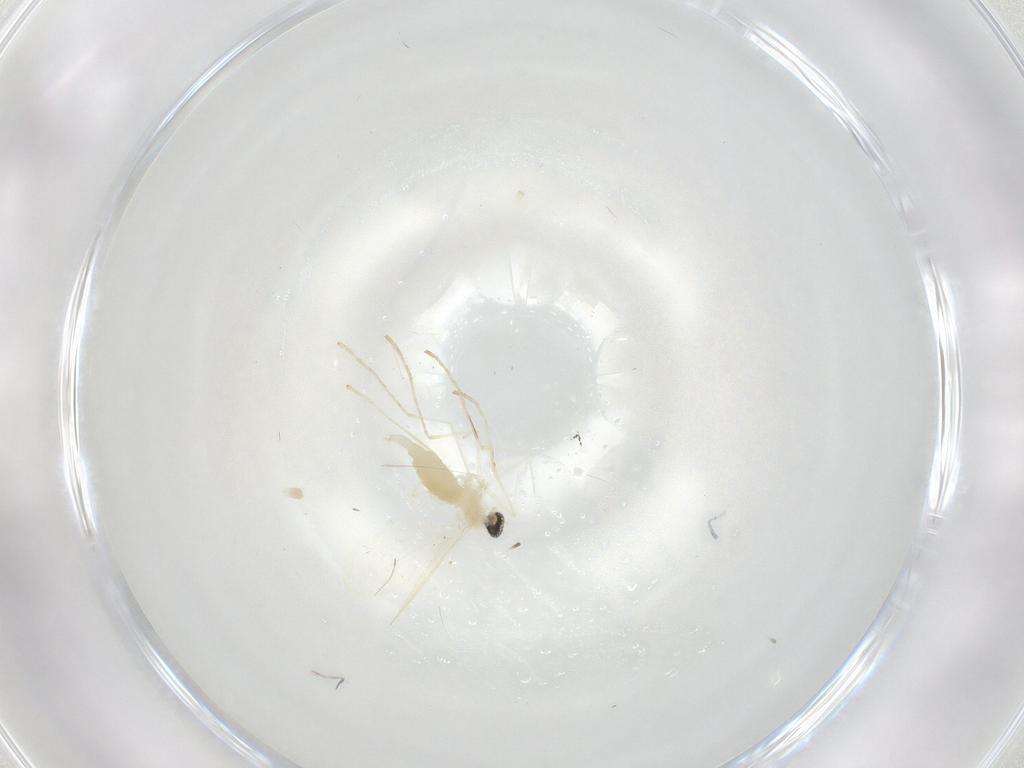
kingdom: Animalia
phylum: Arthropoda
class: Insecta
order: Diptera
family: Cecidomyiidae
